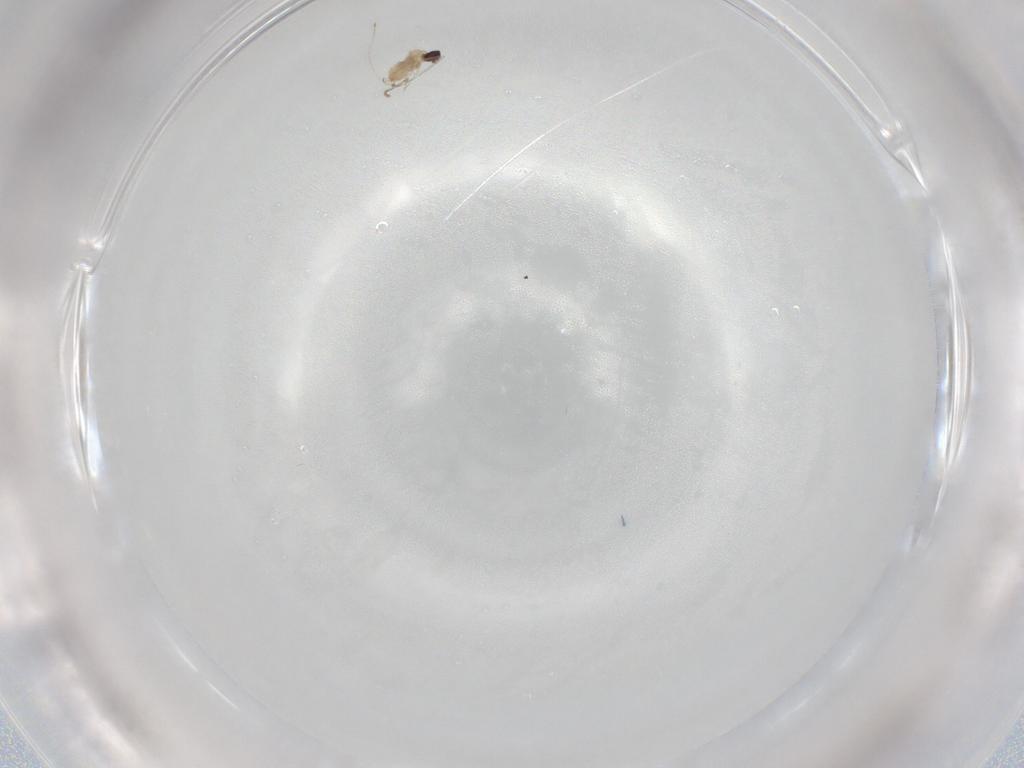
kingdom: Animalia
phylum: Arthropoda
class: Insecta
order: Diptera
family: Cecidomyiidae
